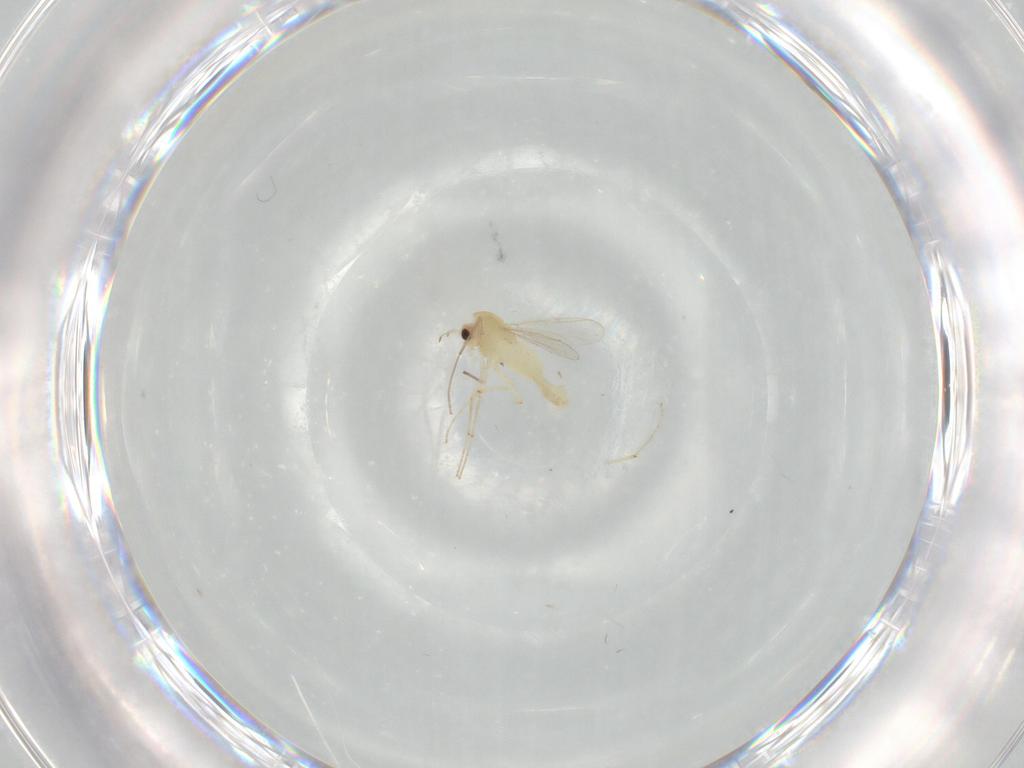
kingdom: Animalia
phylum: Arthropoda
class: Insecta
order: Diptera
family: Chironomidae
